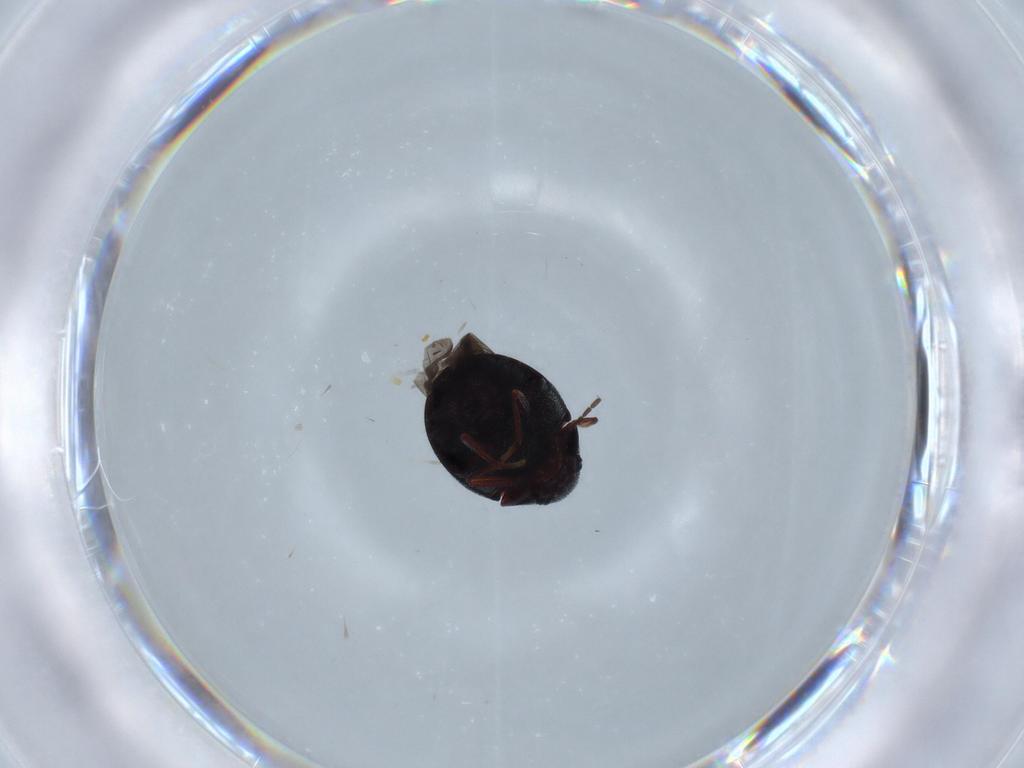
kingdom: Animalia
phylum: Arthropoda
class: Insecta
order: Coleoptera
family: Ptinidae
